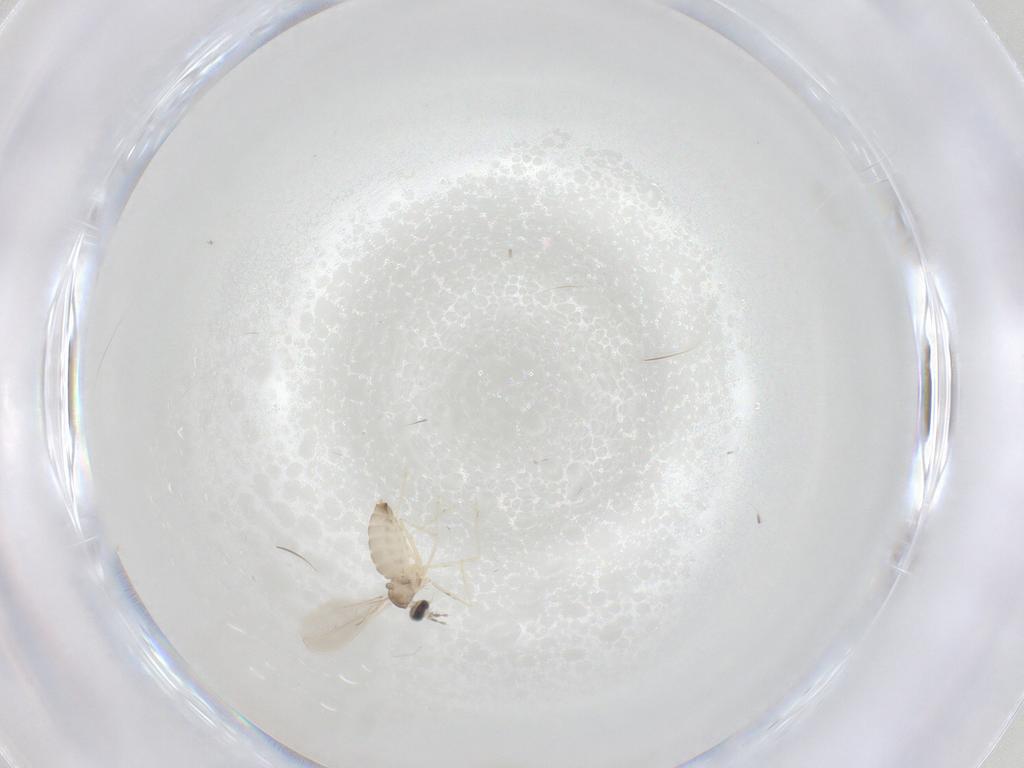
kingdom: Animalia
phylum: Arthropoda
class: Insecta
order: Diptera
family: Cecidomyiidae
